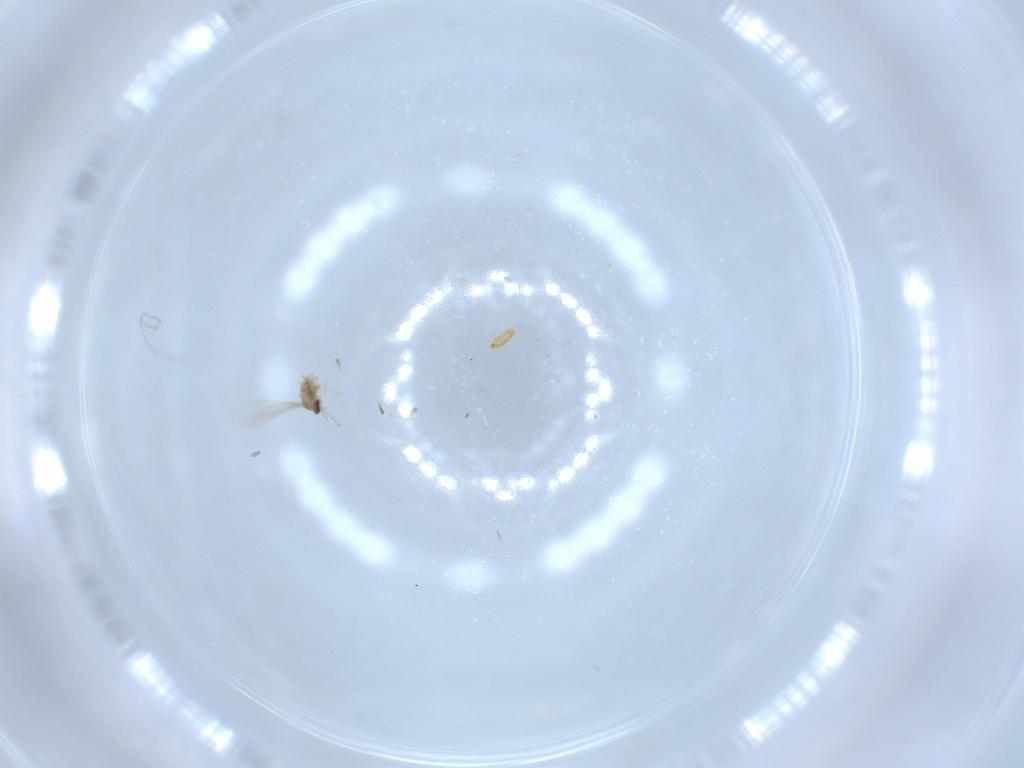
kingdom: Animalia
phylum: Arthropoda
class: Insecta
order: Diptera
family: Cecidomyiidae
